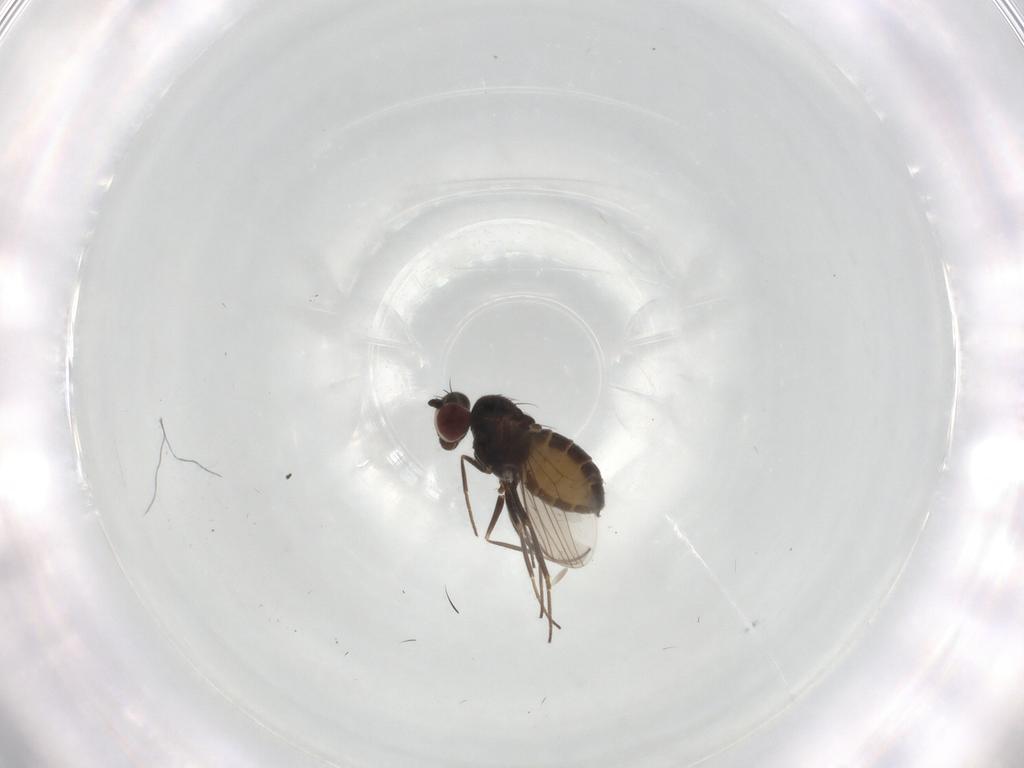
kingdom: Animalia
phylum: Arthropoda
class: Insecta
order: Diptera
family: Dolichopodidae
